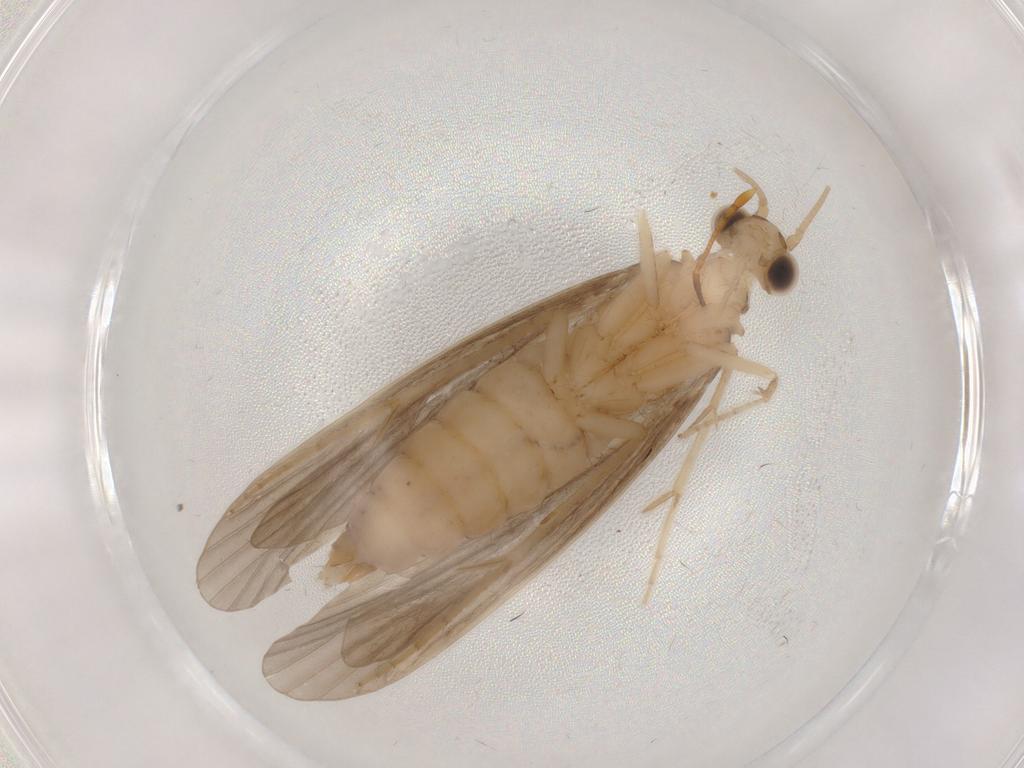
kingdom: Animalia
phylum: Arthropoda
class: Insecta
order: Trichoptera
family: Ecnomidae
